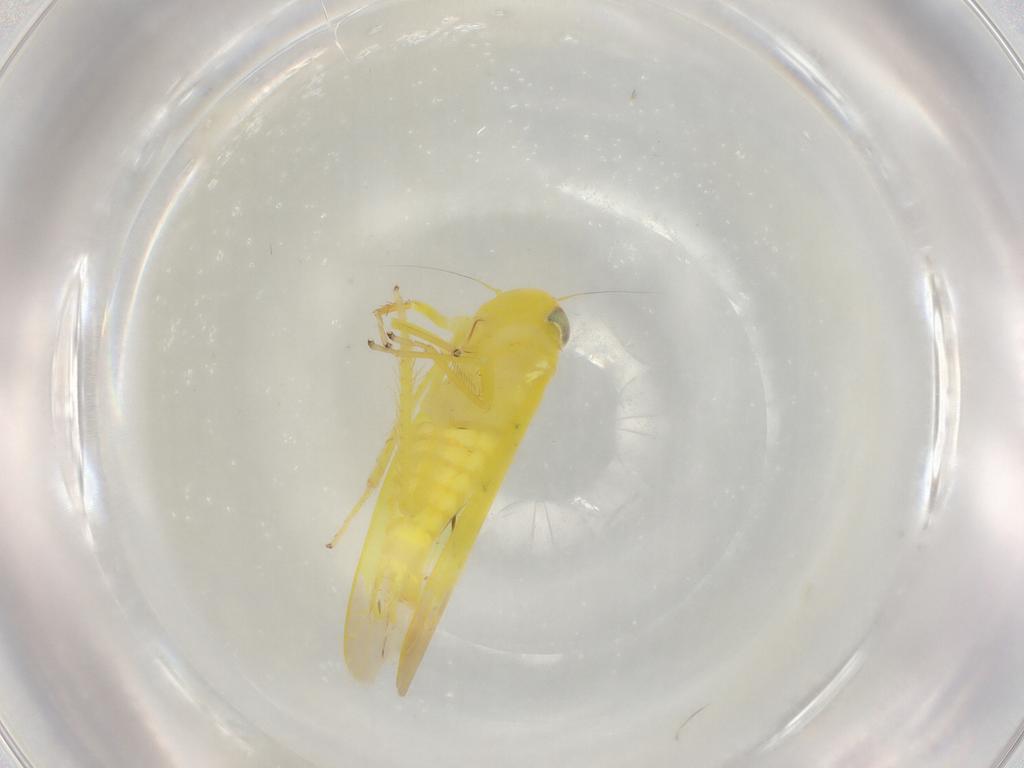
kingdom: Animalia
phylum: Arthropoda
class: Insecta
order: Hemiptera
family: Cicadellidae
